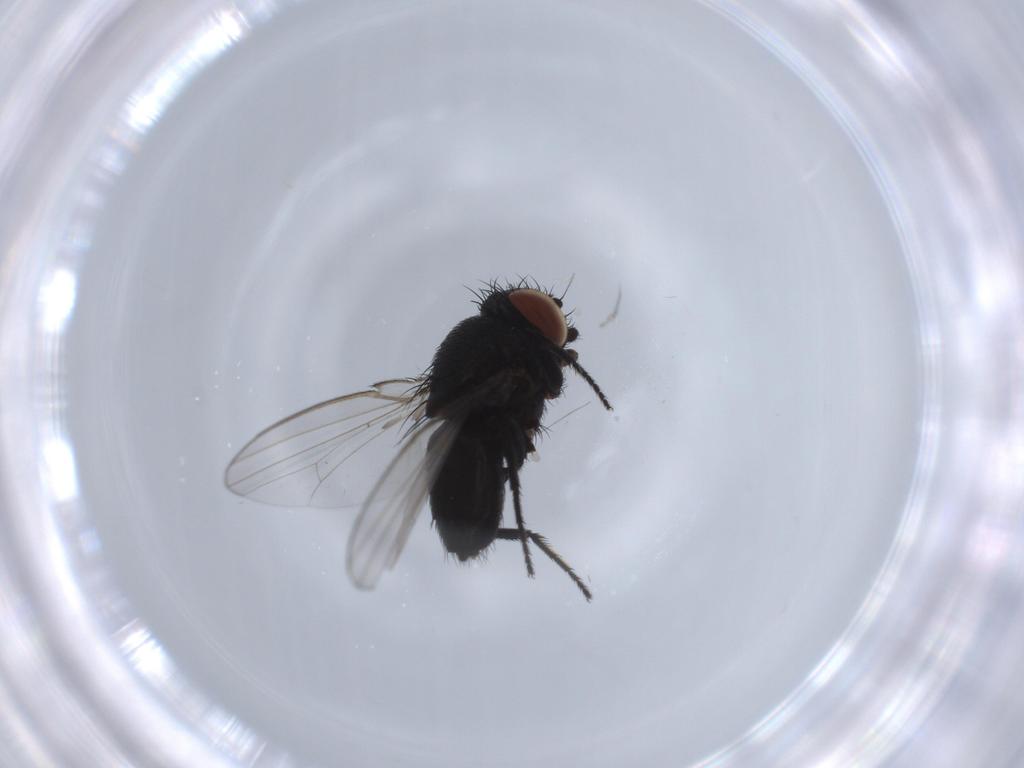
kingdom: Animalia
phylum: Arthropoda
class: Insecta
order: Diptera
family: Milichiidae
